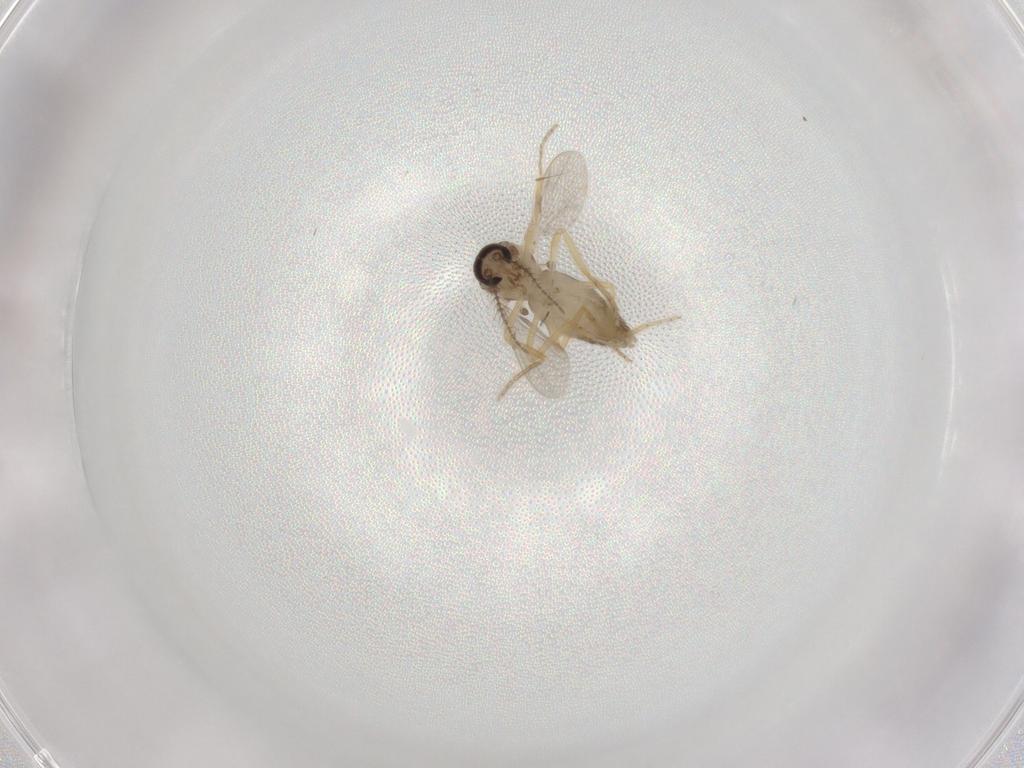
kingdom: Animalia
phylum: Arthropoda
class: Insecta
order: Diptera
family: Ceratopogonidae
